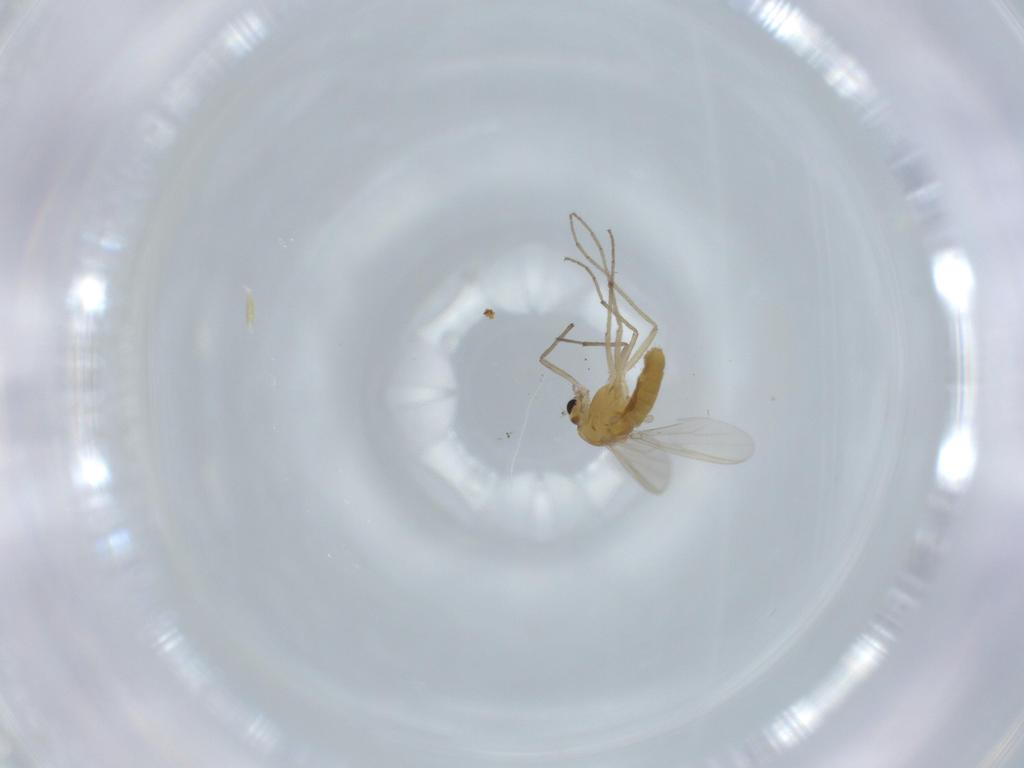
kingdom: Animalia
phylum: Arthropoda
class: Insecta
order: Diptera
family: Chironomidae
